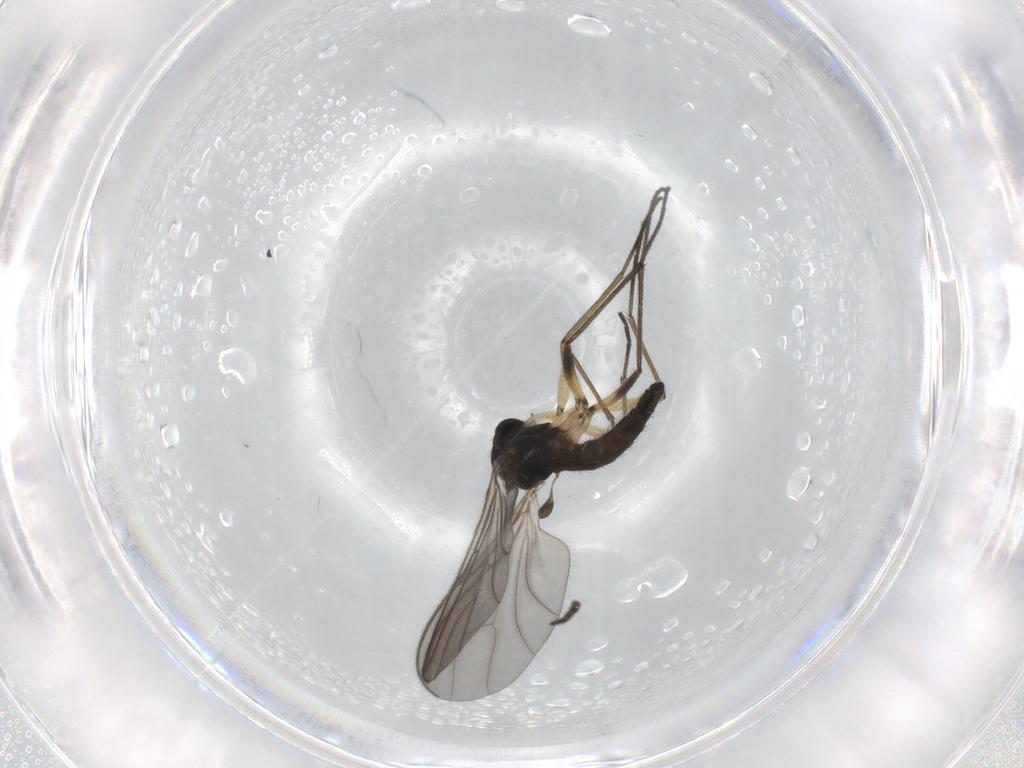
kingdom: Animalia
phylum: Arthropoda
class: Insecta
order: Diptera
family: Sciaridae
